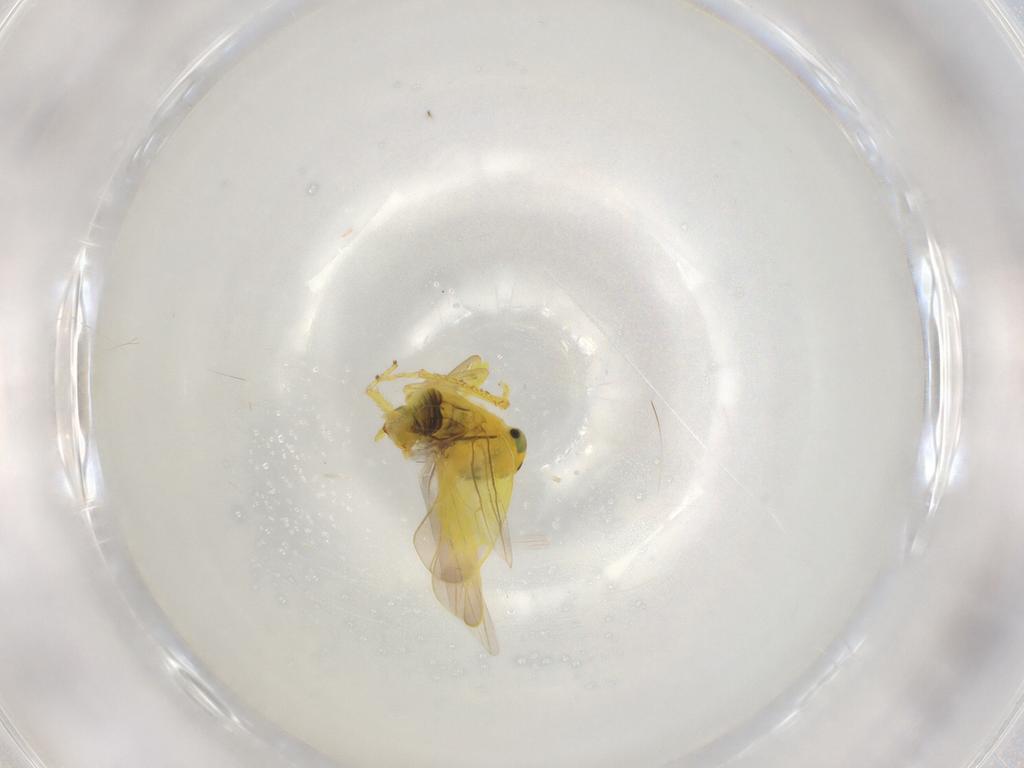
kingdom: Animalia
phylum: Arthropoda
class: Insecta
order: Hemiptera
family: Cicadellidae
